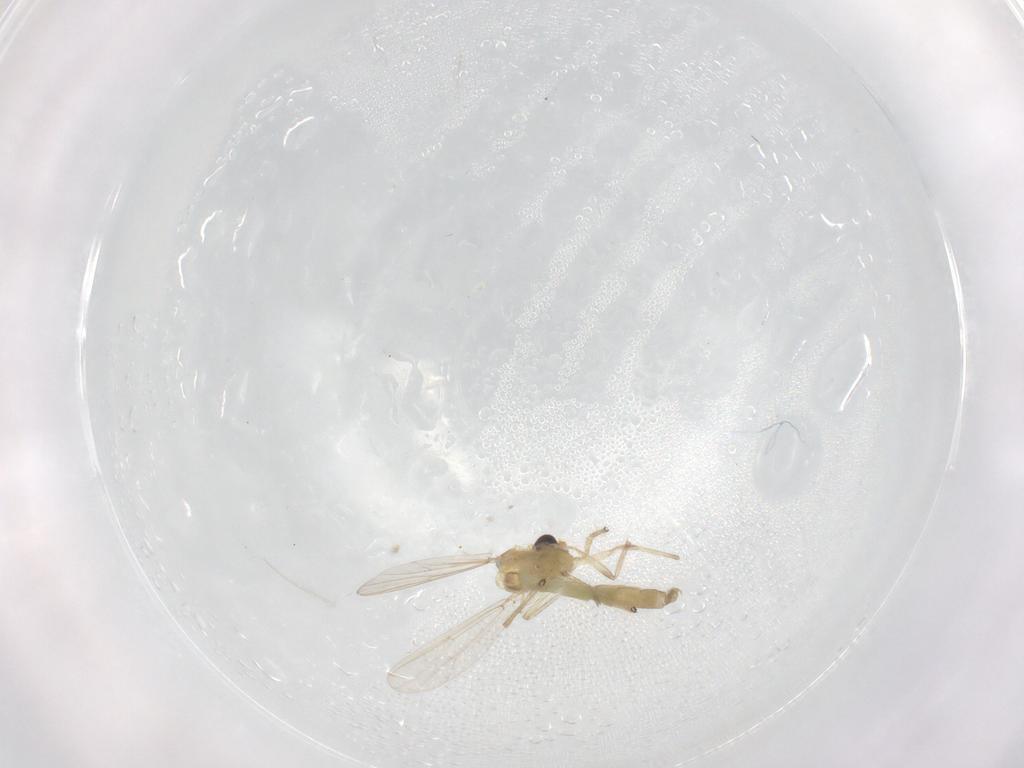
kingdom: Animalia
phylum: Arthropoda
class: Insecta
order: Diptera
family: Chironomidae
